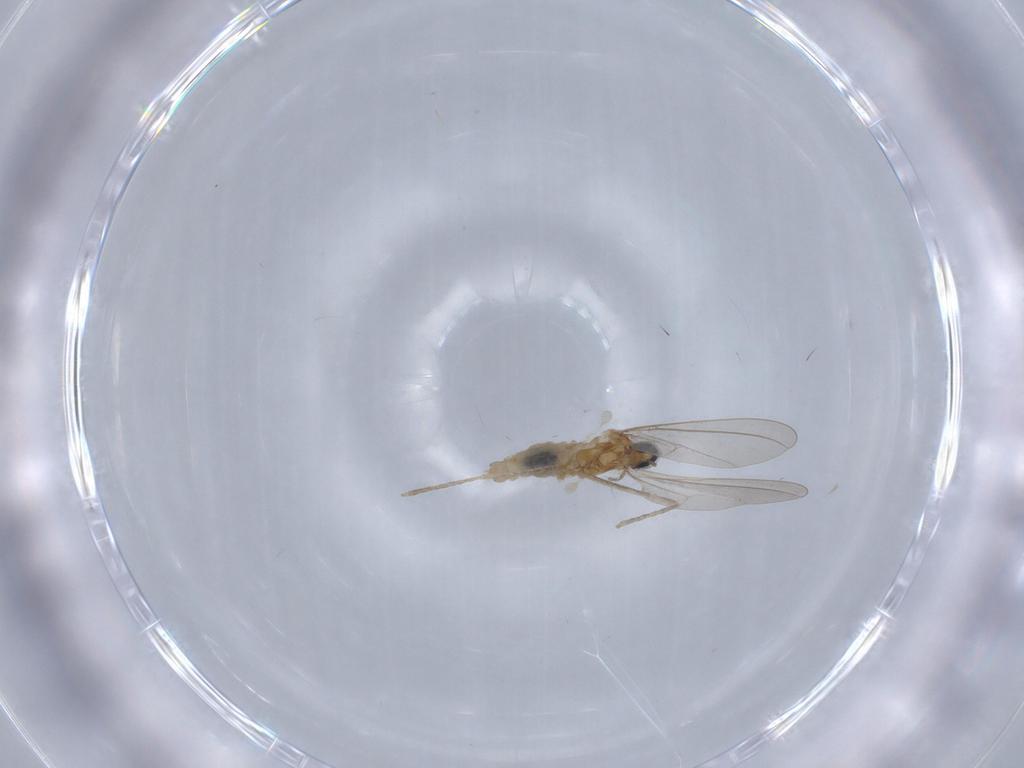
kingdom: Animalia
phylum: Arthropoda
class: Insecta
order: Diptera
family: Cecidomyiidae
